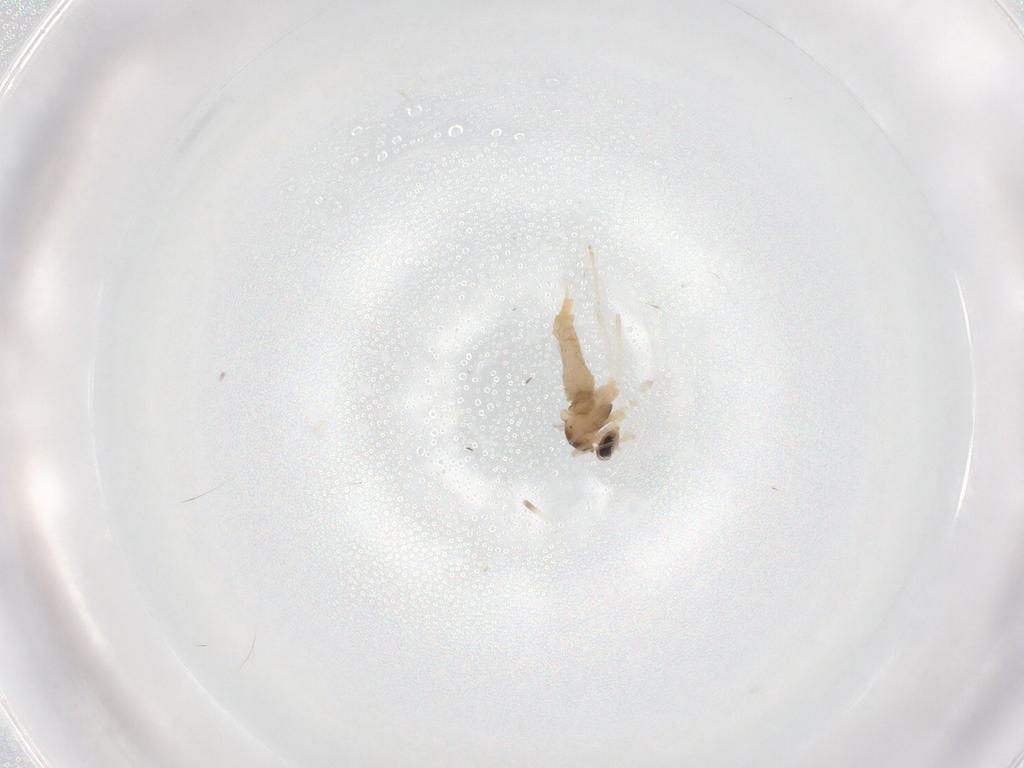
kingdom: Animalia
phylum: Arthropoda
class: Insecta
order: Diptera
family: Cecidomyiidae
